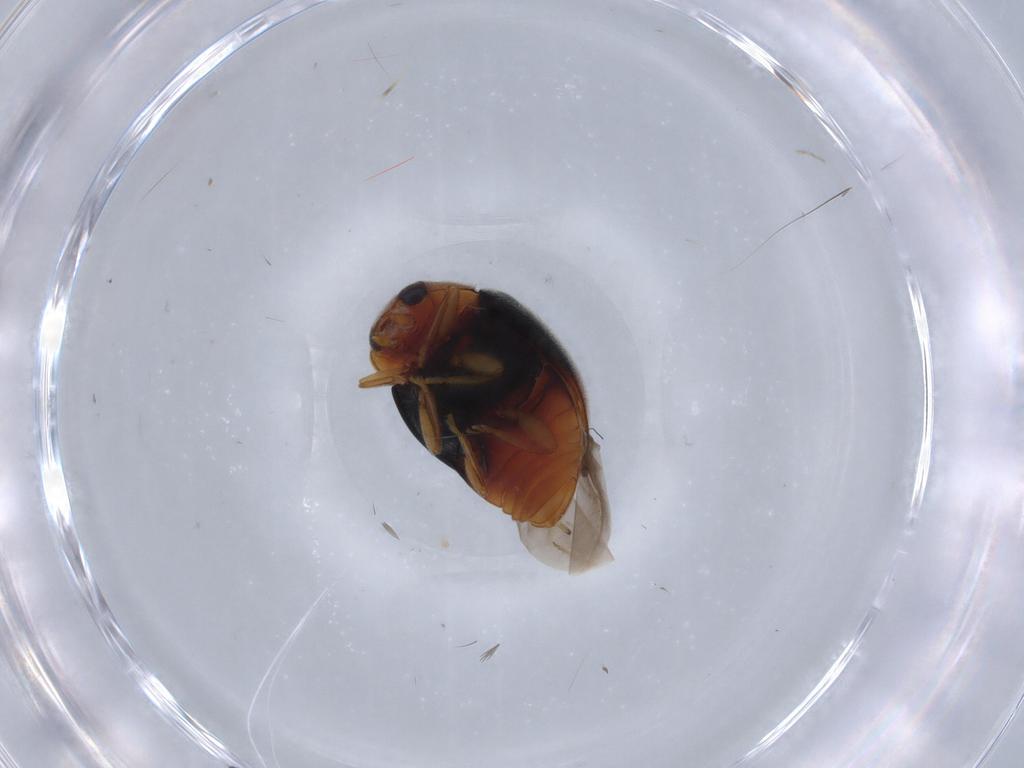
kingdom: Animalia
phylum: Arthropoda
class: Insecta
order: Coleoptera
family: Coccinellidae
